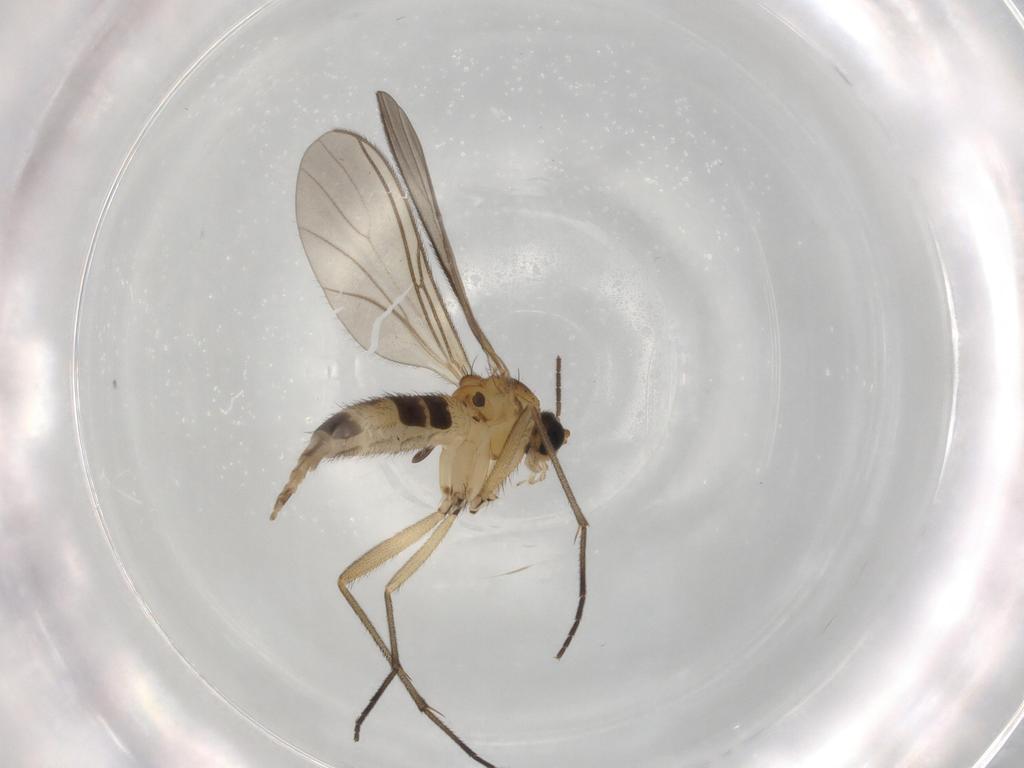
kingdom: Animalia
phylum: Arthropoda
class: Insecta
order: Diptera
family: Sciaridae
